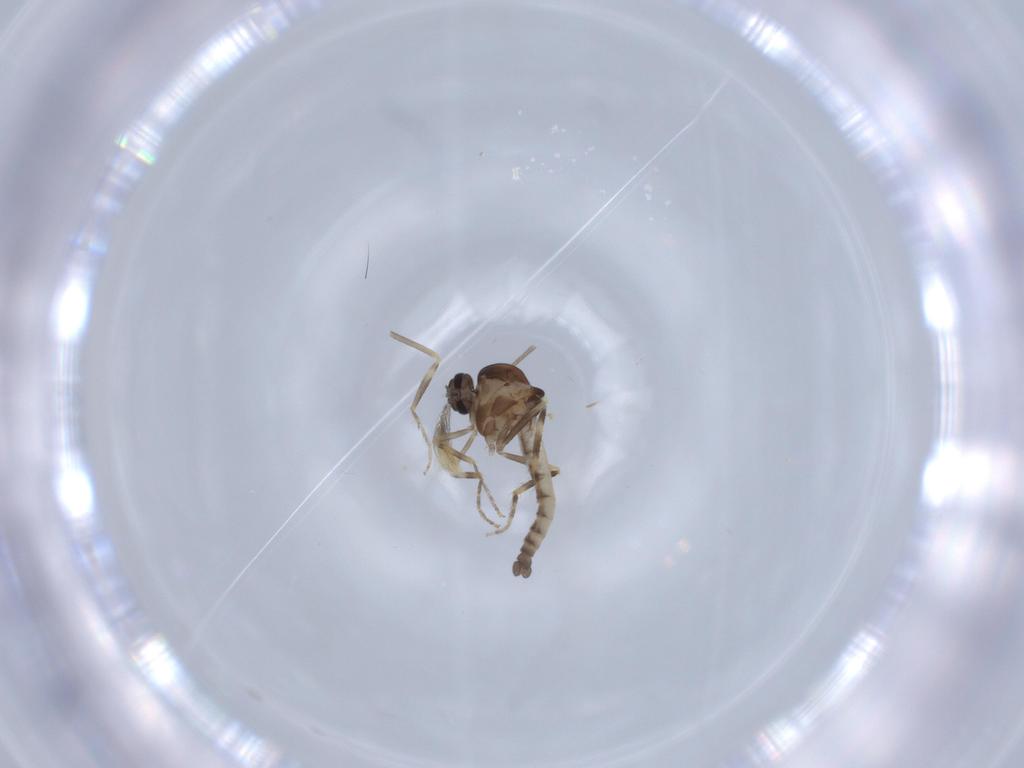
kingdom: Animalia
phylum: Arthropoda
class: Insecta
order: Diptera
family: Ceratopogonidae
